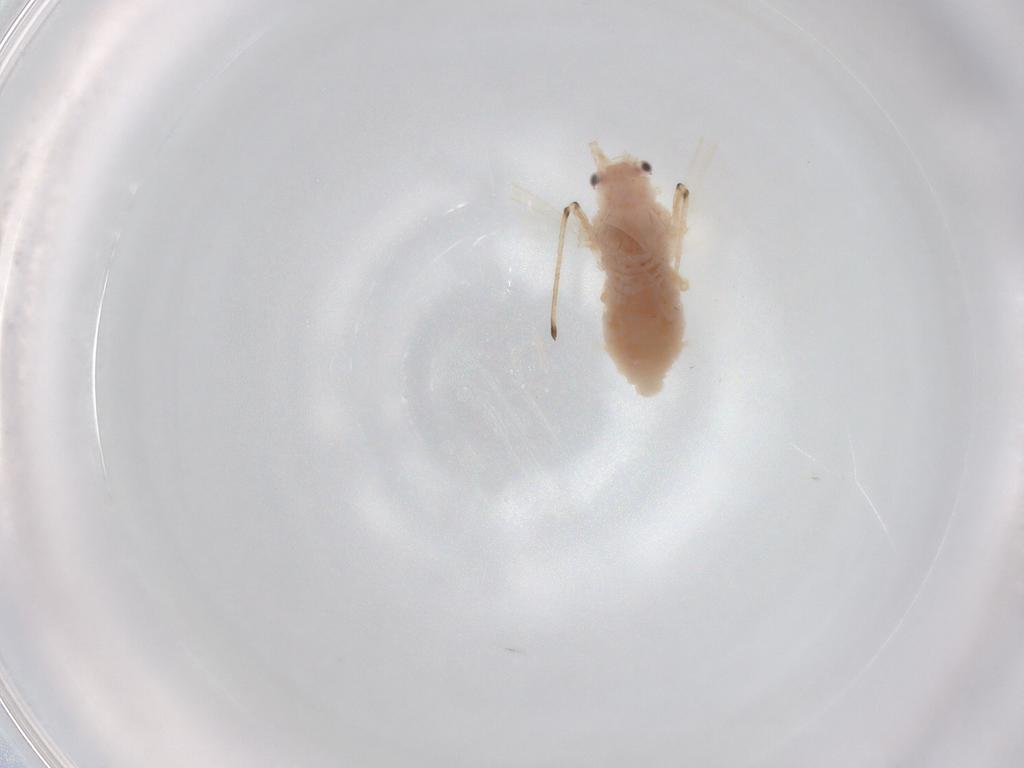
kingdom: Animalia
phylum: Arthropoda
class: Insecta
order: Hemiptera
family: Aphididae
